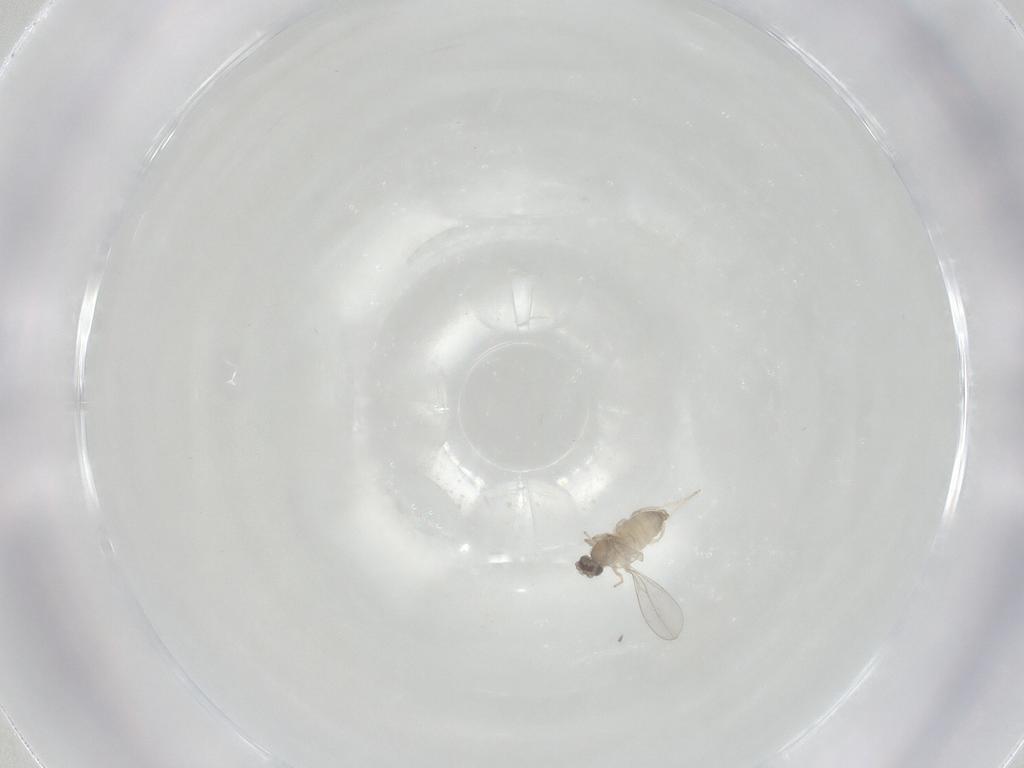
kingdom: Animalia
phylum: Arthropoda
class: Insecta
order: Diptera
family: Cecidomyiidae
